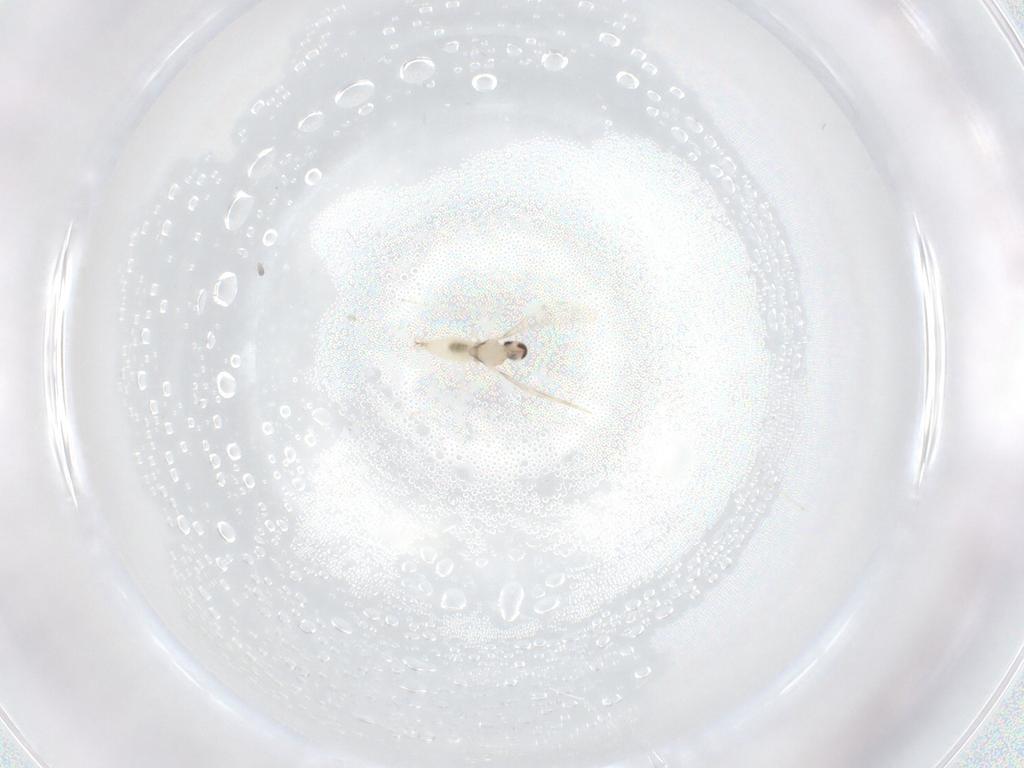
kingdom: Animalia
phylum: Arthropoda
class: Insecta
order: Diptera
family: Cecidomyiidae
